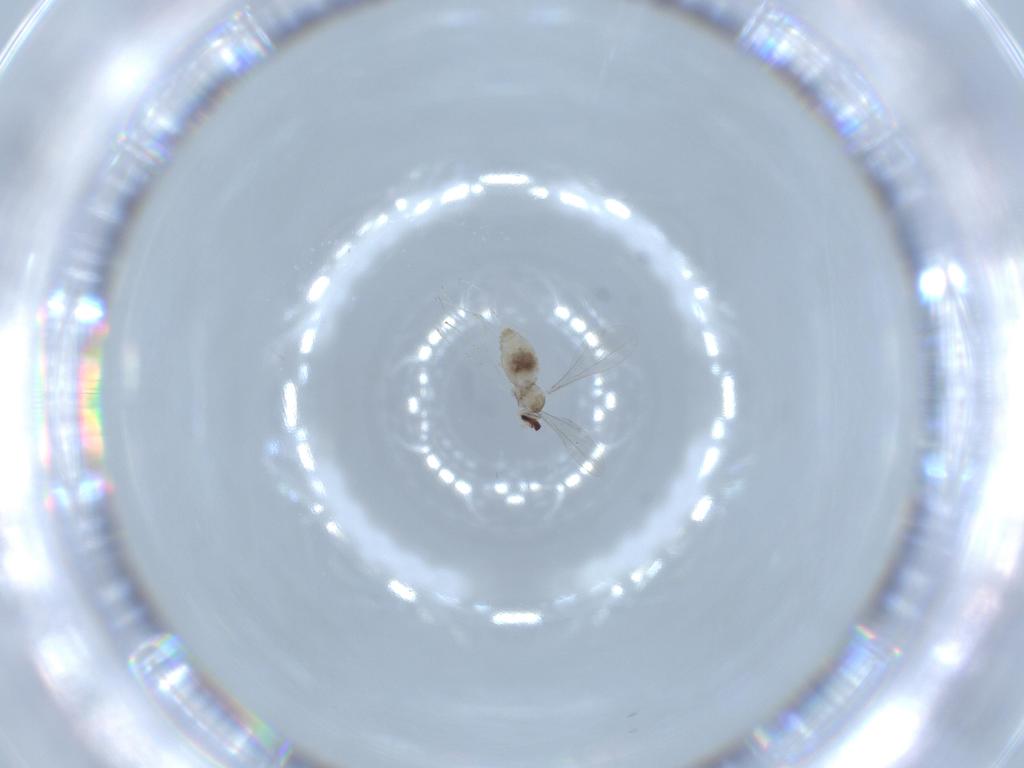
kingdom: Animalia
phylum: Arthropoda
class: Insecta
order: Diptera
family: Cecidomyiidae
